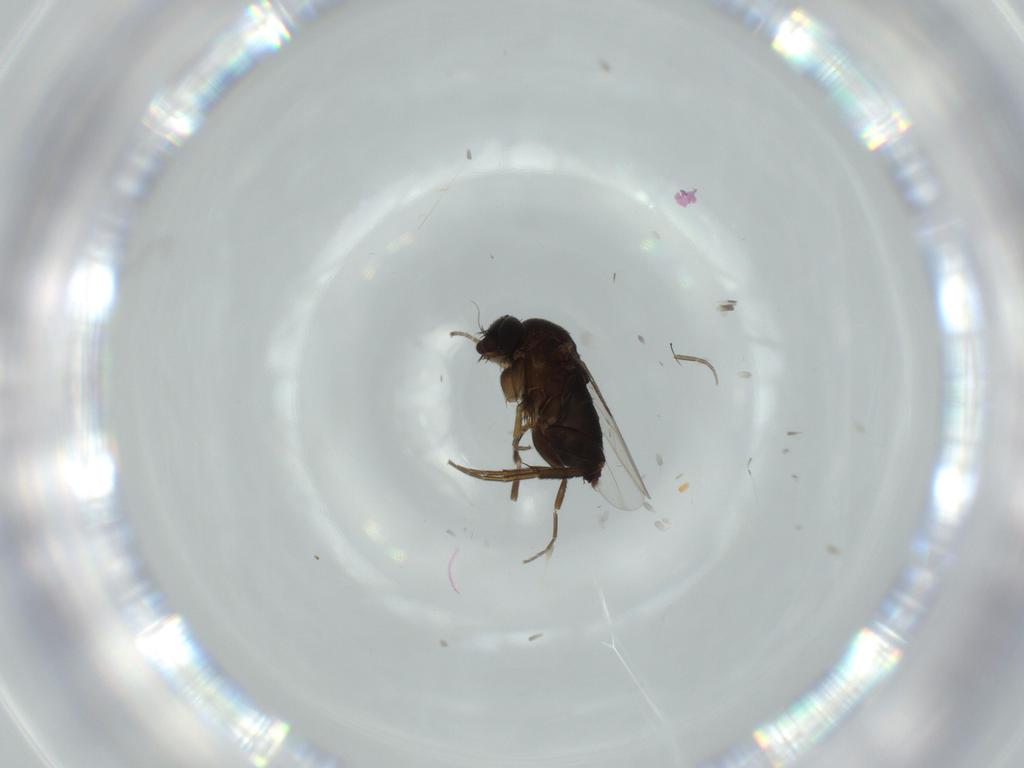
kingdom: Animalia
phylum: Arthropoda
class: Insecta
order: Diptera
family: Phoridae
